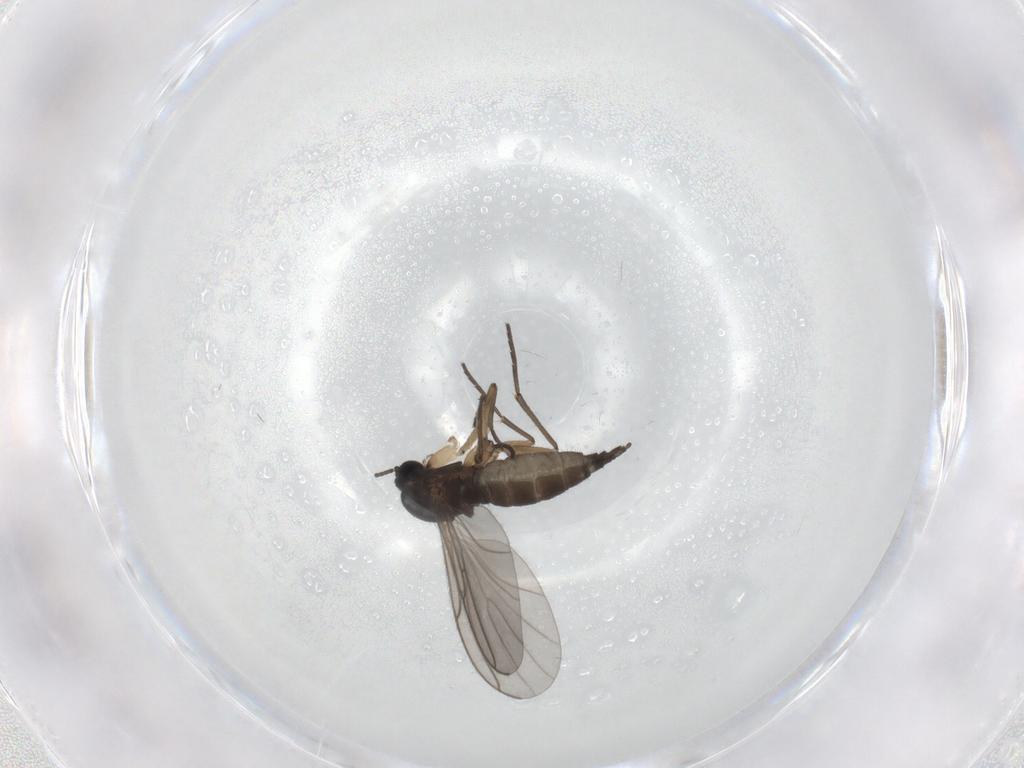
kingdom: Animalia
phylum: Arthropoda
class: Insecta
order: Diptera
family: Sciaridae
